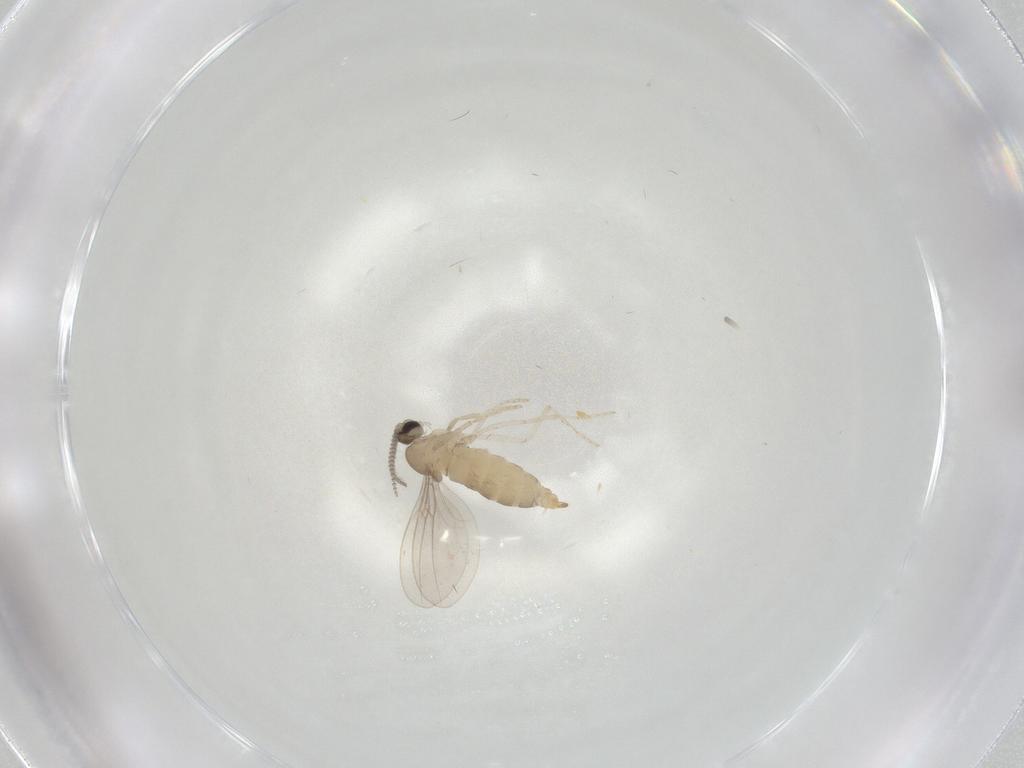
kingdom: Animalia
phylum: Arthropoda
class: Insecta
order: Diptera
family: Cecidomyiidae
